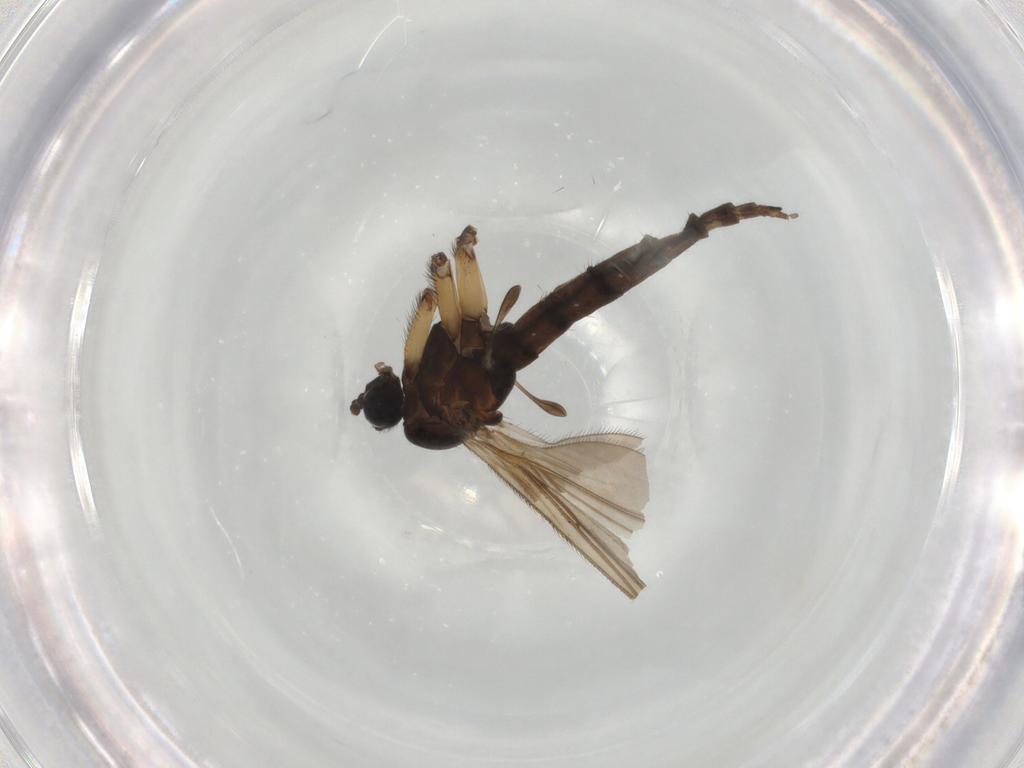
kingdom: Animalia
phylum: Arthropoda
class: Insecta
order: Diptera
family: Sciaridae
